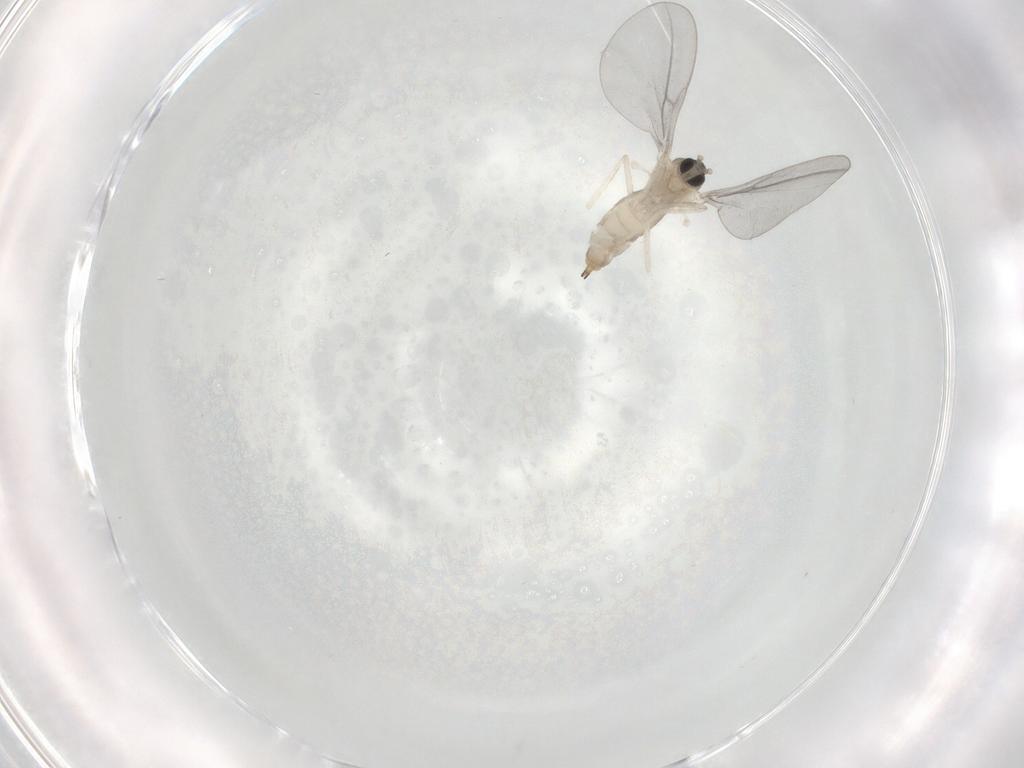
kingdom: Animalia
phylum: Arthropoda
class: Insecta
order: Diptera
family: Cecidomyiidae
